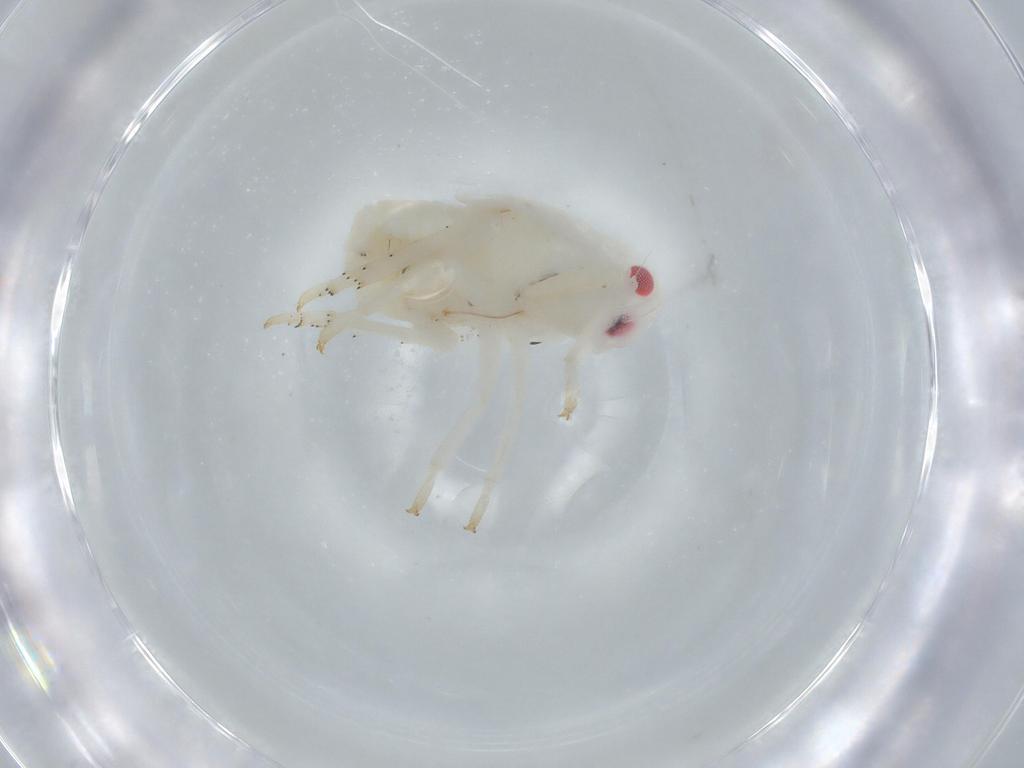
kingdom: Animalia
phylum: Arthropoda
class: Insecta
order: Hemiptera
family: Flatidae
